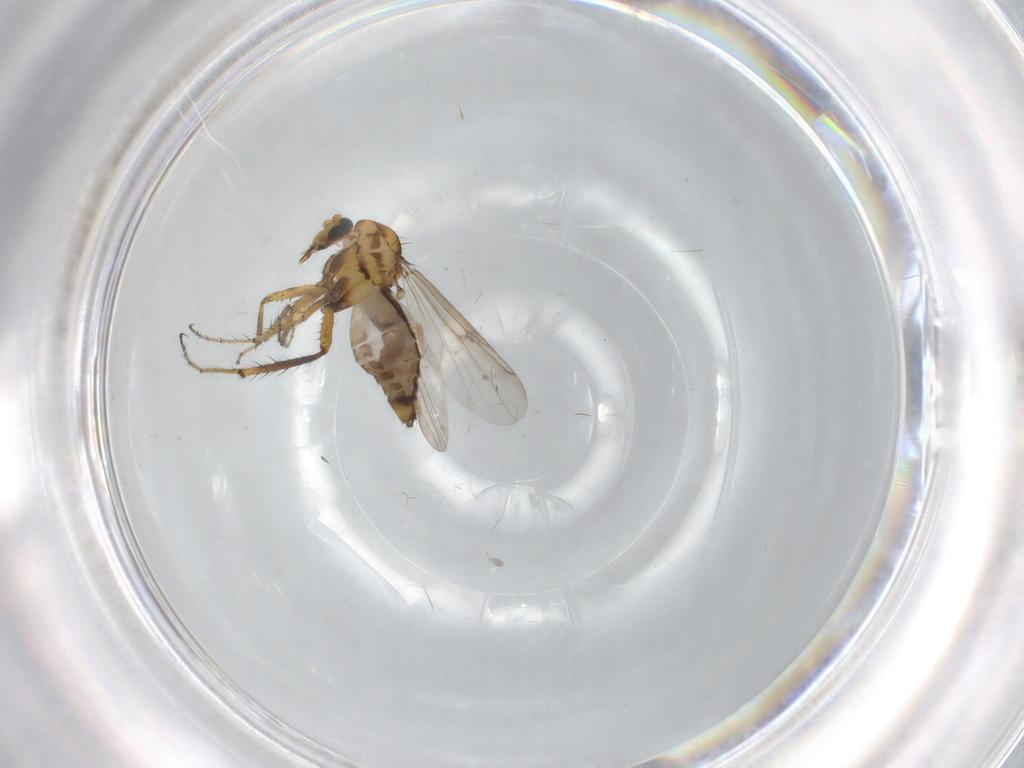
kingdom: Animalia
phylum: Arthropoda
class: Insecta
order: Diptera
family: Ceratopogonidae
